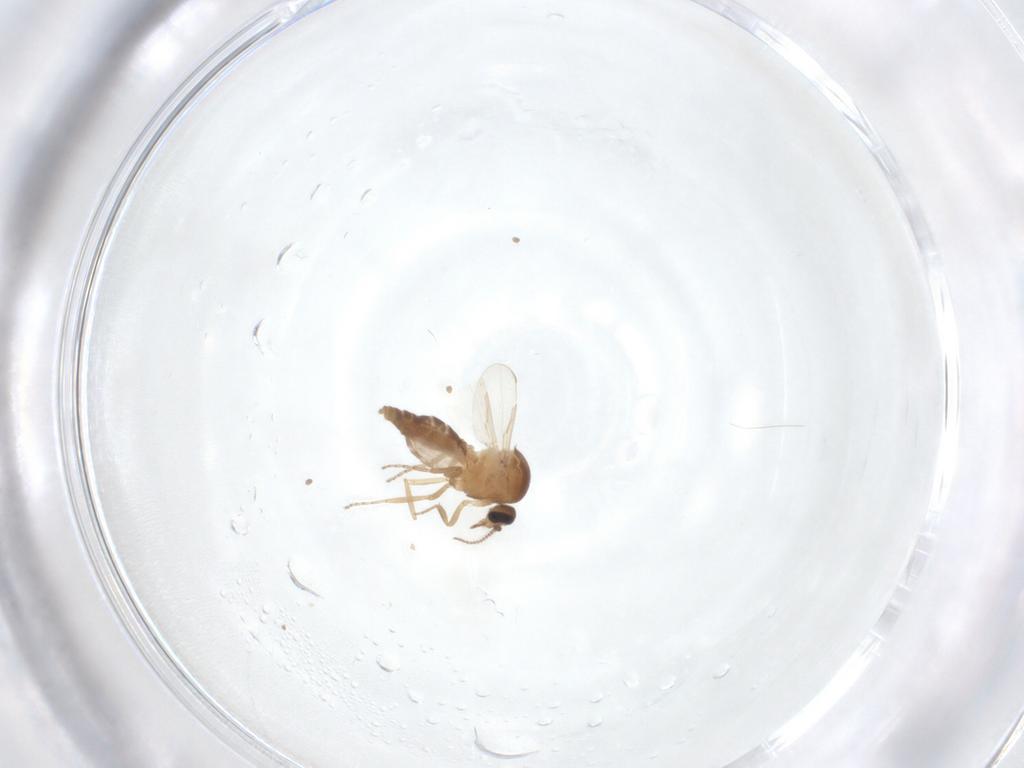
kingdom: Animalia
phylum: Arthropoda
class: Insecta
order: Diptera
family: Ceratopogonidae
